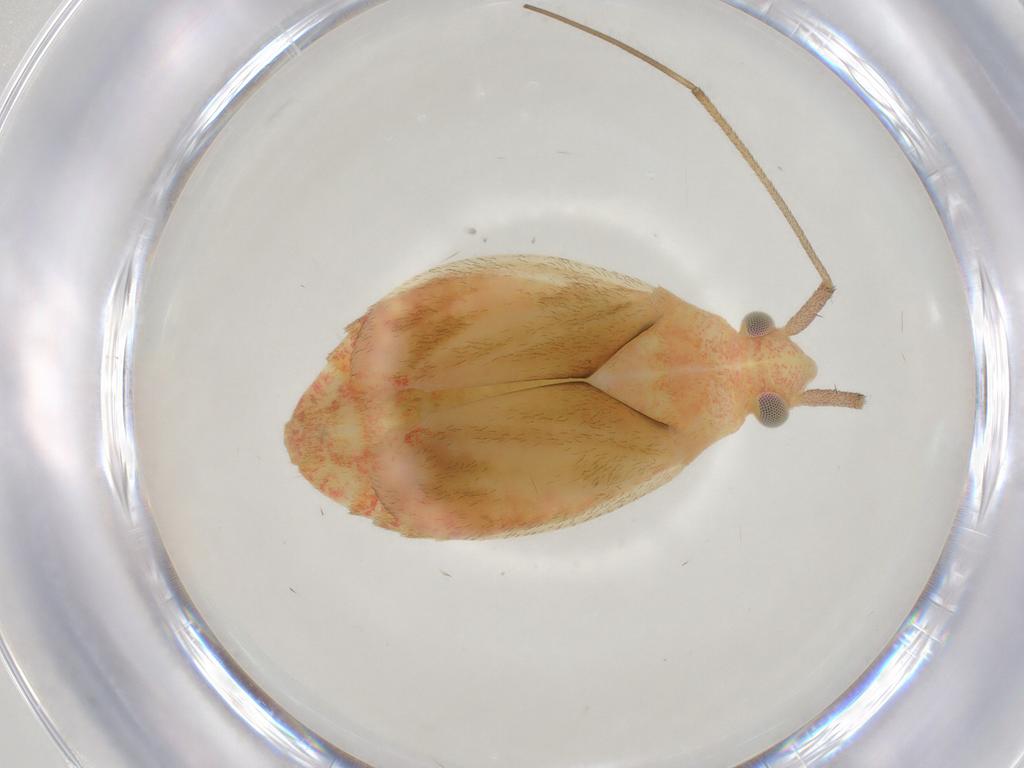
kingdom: Animalia
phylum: Arthropoda
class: Insecta
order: Hemiptera
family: Miridae
